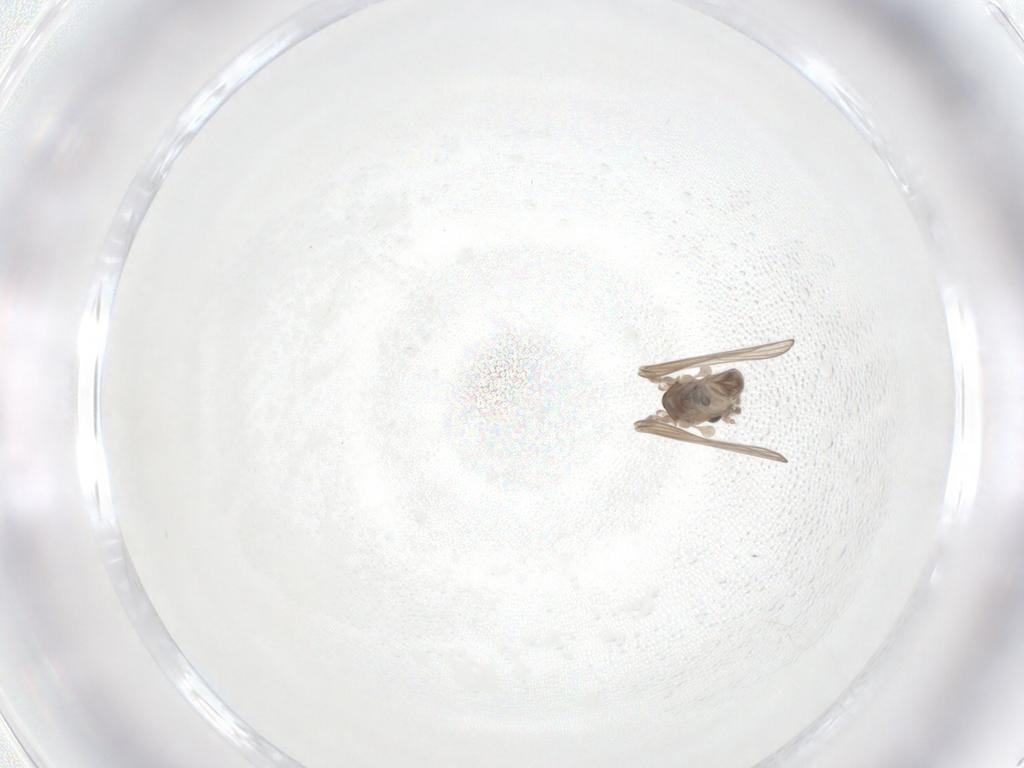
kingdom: Animalia
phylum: Arthropoda
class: Insecta
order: Diptera
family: Psychodidae
